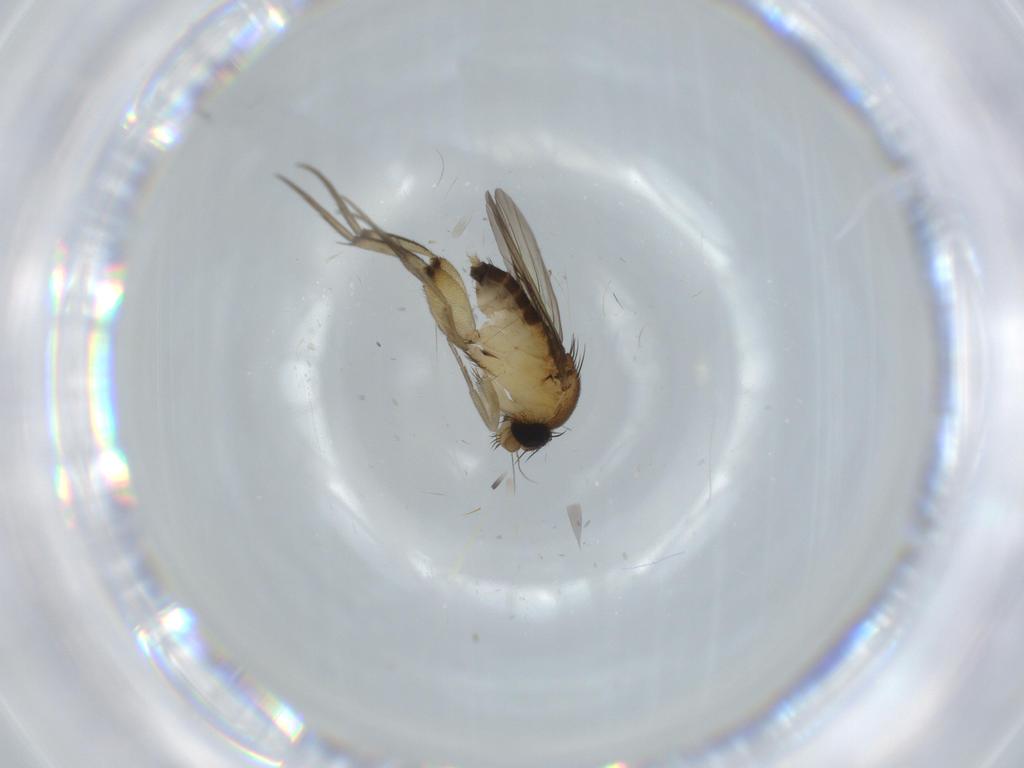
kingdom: Animalia
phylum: Arthropoda
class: Insecta
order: Diptera
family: Phoridae
